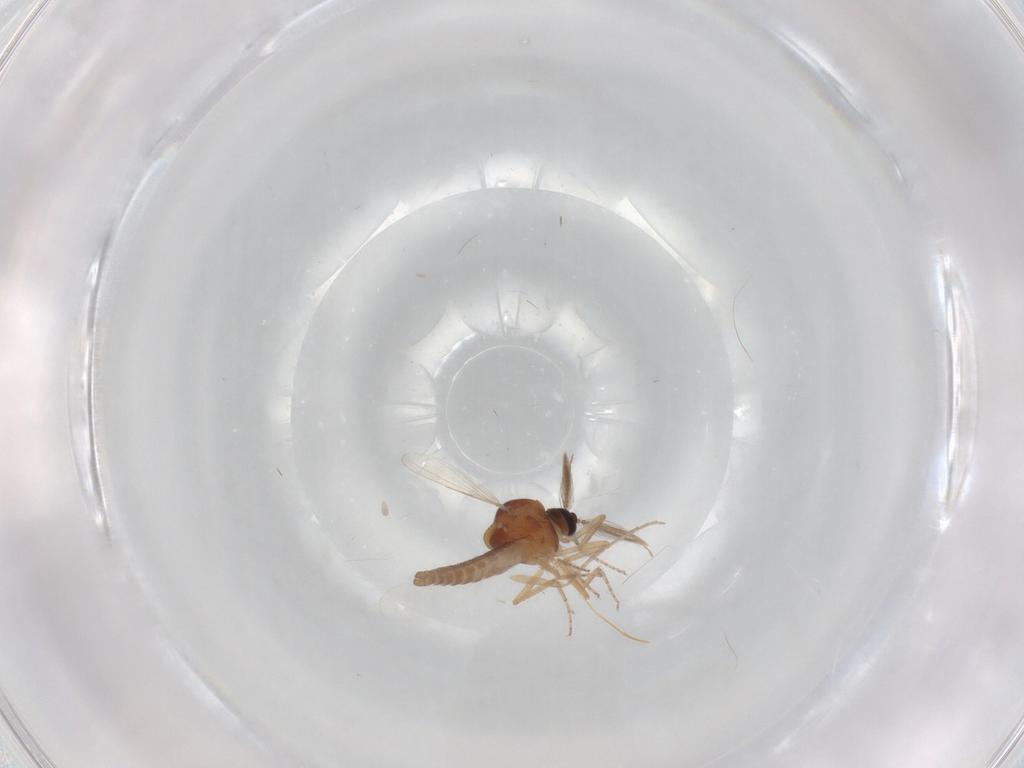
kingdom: Animalia
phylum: Arthropoda
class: Insecta
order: Diptera
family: Ceratopogonidae
